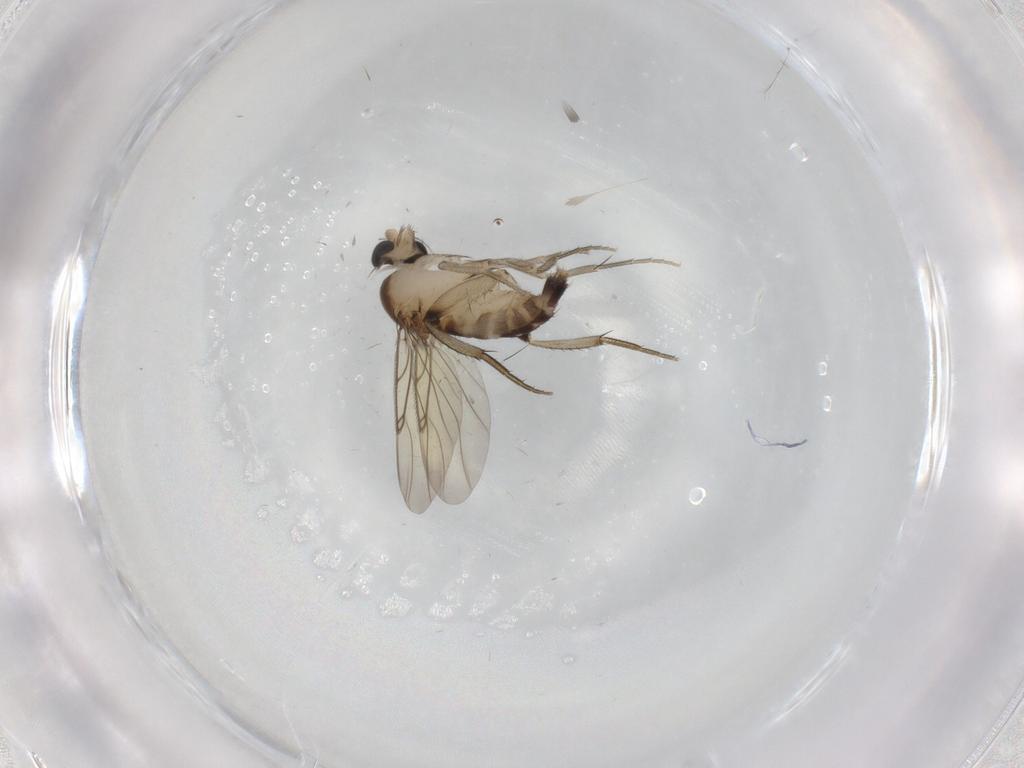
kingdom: Animalia
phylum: Arthropoda
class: Insecta
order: Diptera
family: Phoridae
